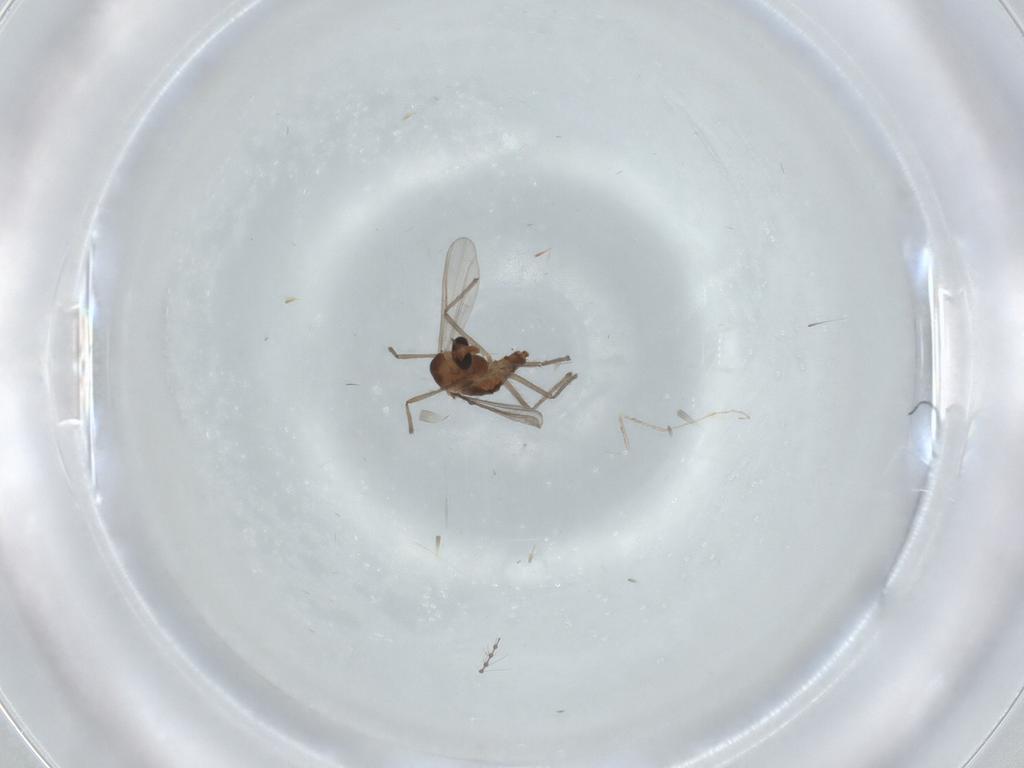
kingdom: Animalia
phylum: Arthropoda
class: Insecta
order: Diptera
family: Chironomidae
